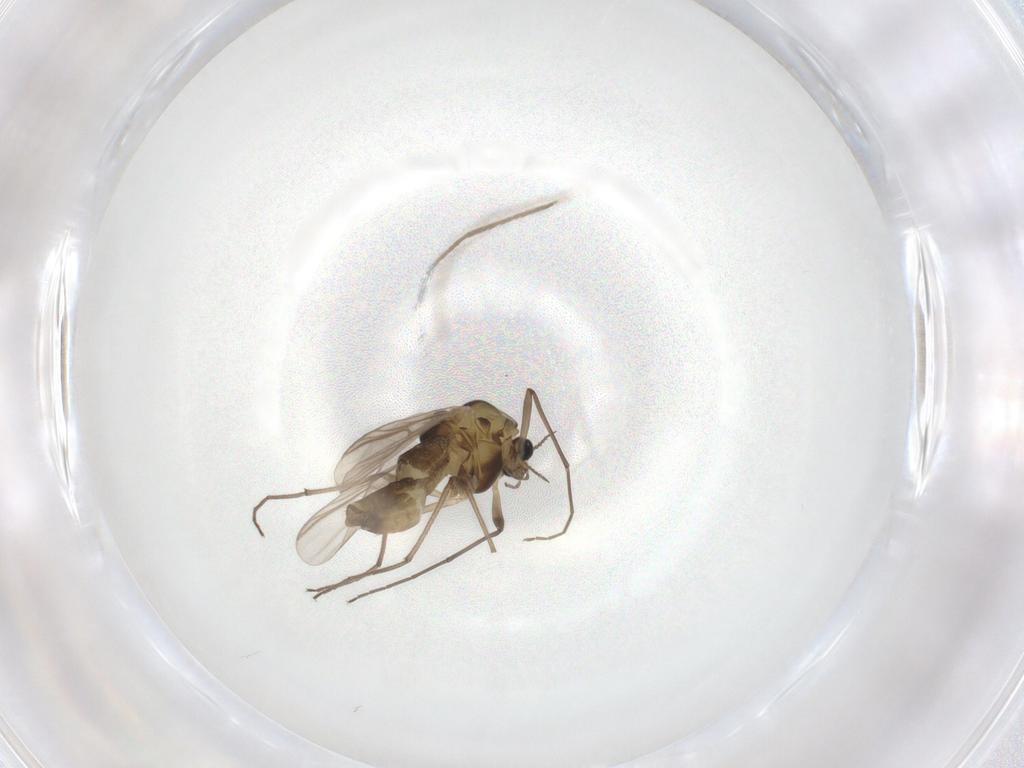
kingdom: Animalia
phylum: Arthropoda
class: Insecta
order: Diptera
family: Chironomidae
